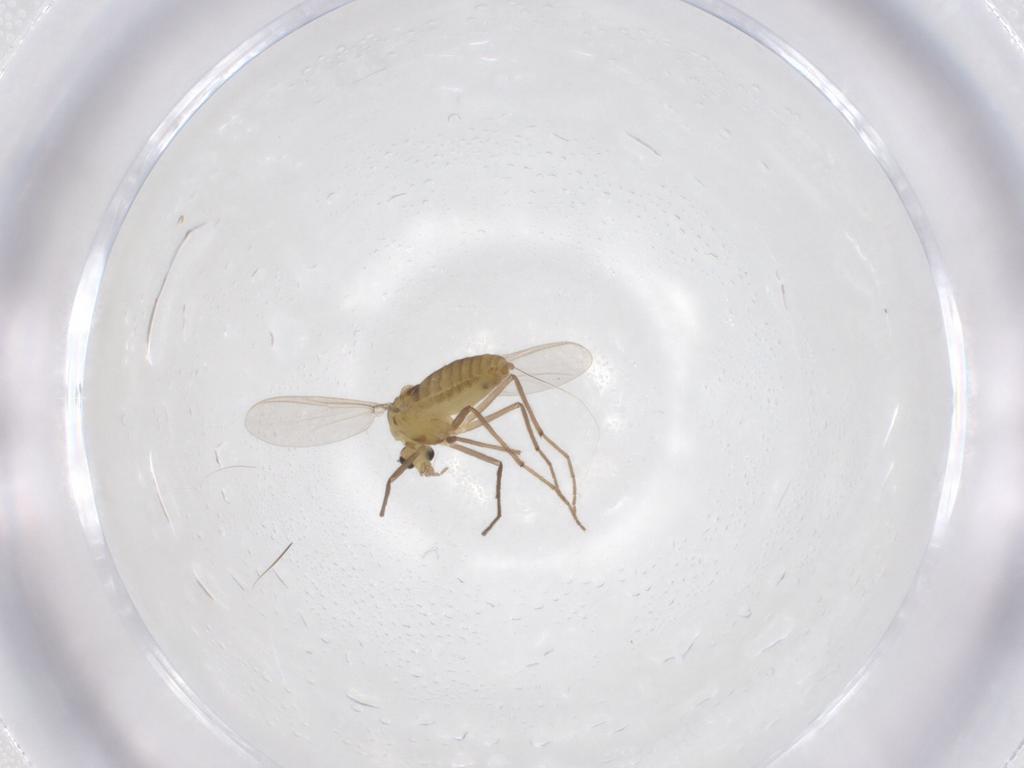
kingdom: Animalia
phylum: Arthropoda
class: Insecta
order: Diptera
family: Chironomidae
